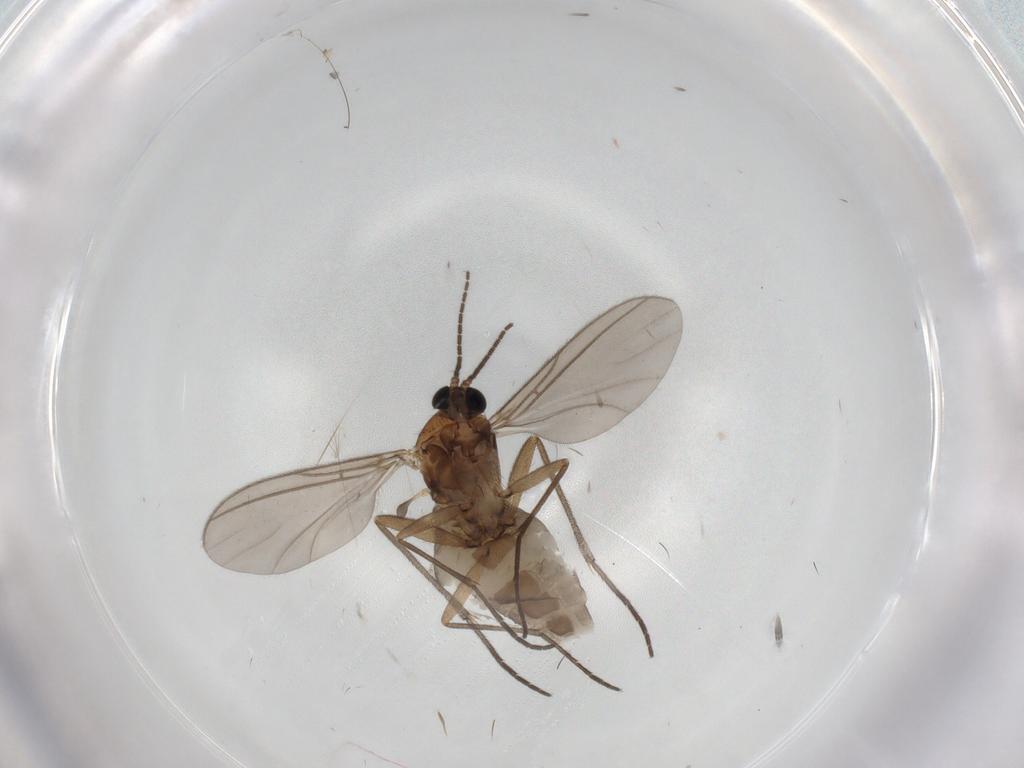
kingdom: Animalia
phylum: Arthropoda
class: Insecta
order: Diptera
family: Sciaridae
